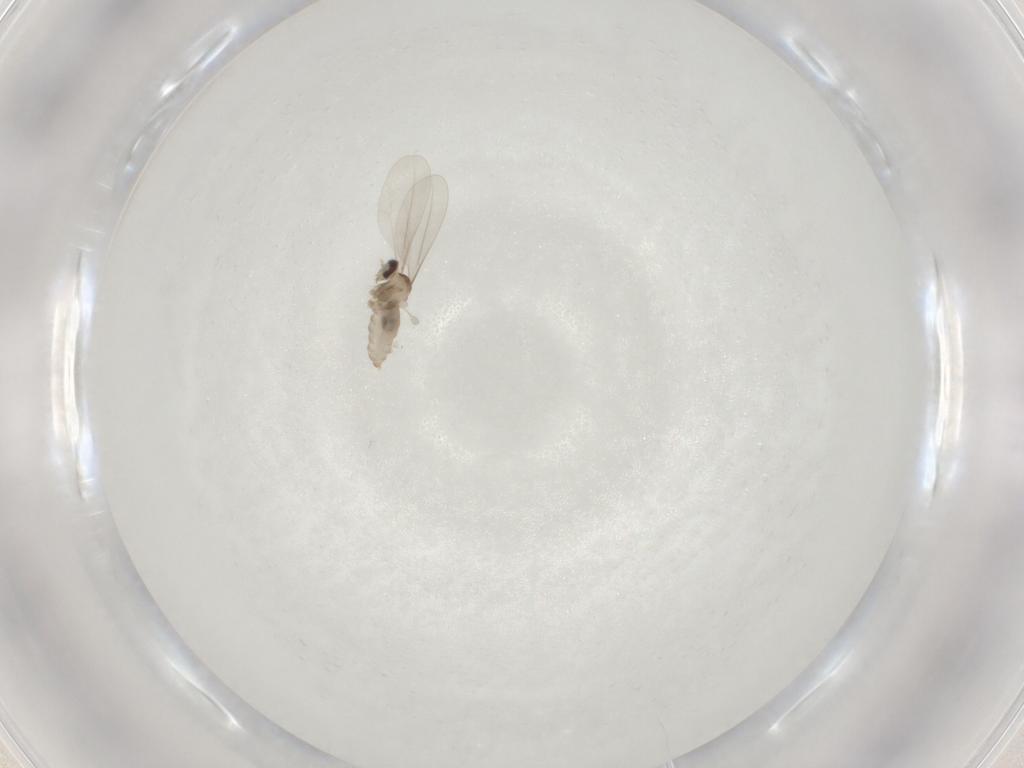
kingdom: Animalia
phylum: Arthropoda
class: Insecta
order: Diptera
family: Cecidomyiidae
